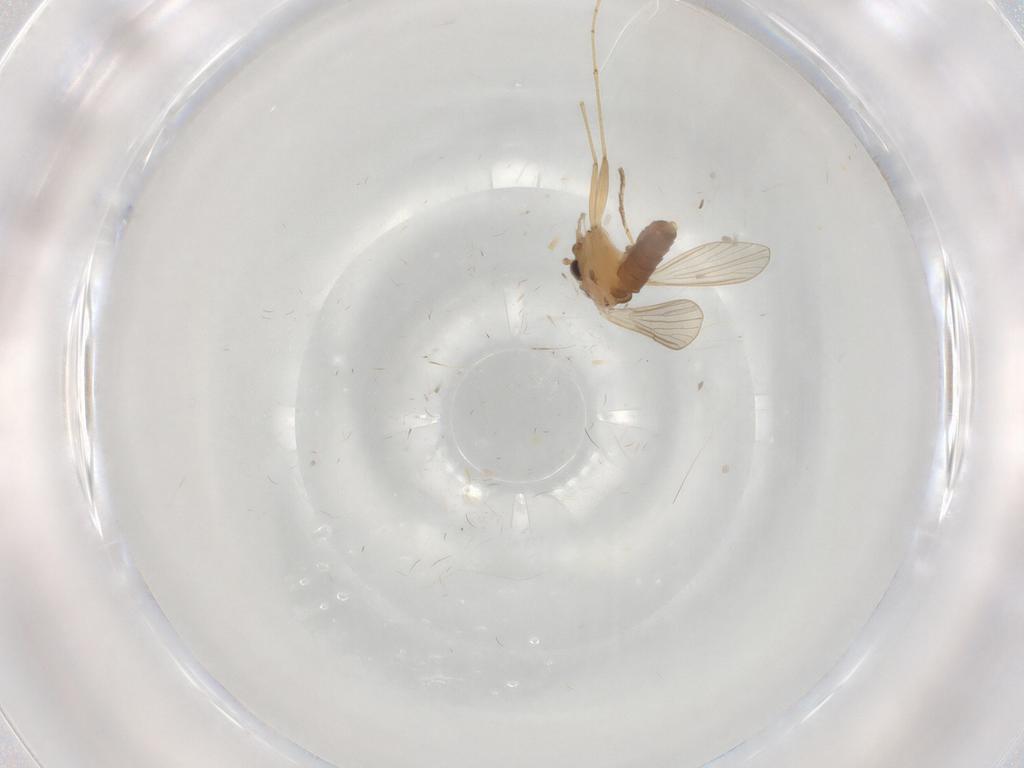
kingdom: Animalia
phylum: Arthropoda
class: Insecta
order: Diptera
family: Psychodidae
